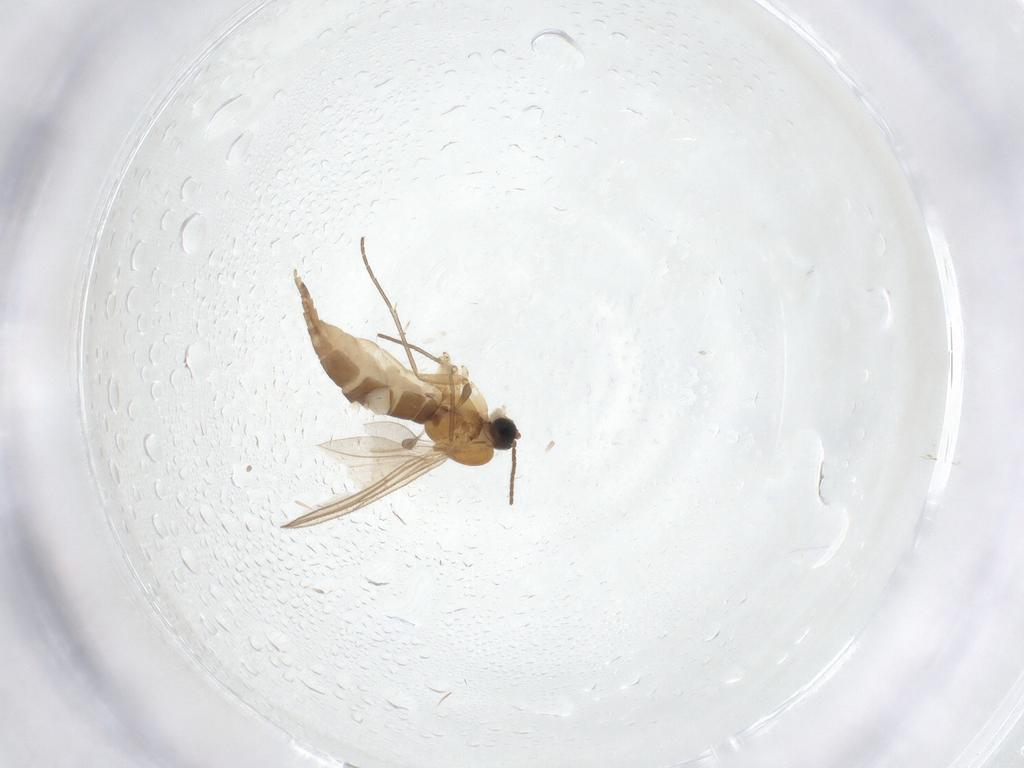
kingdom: Animalia
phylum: Arthropoda
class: Insecta
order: Diptera
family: Sciaridae
